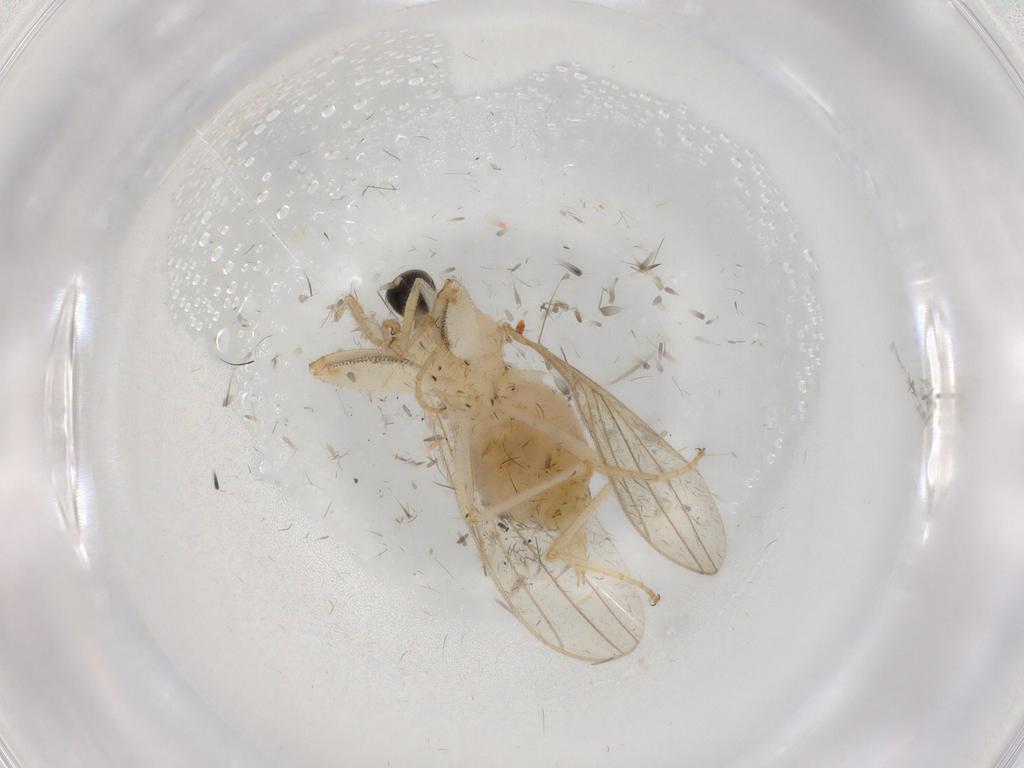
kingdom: Animalia
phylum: Arthropoda
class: Insecta
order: Diptera
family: Hybotidae
